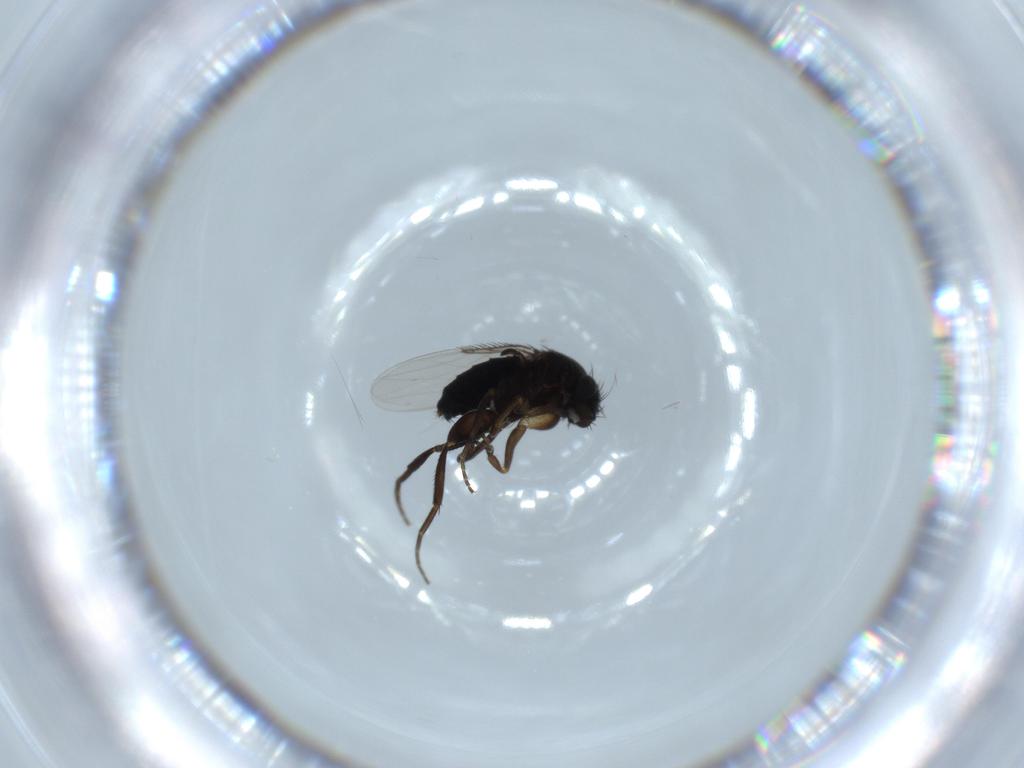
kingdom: Animalia
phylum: Arthropoda
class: Insecta
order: Diptera
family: Phoridae
